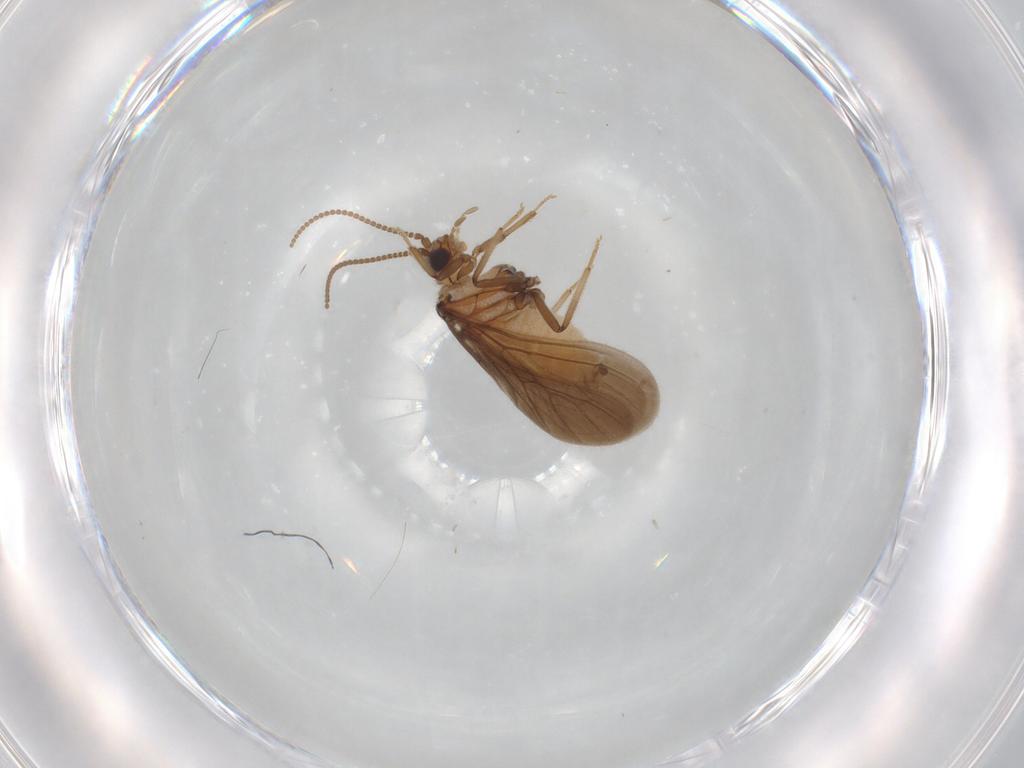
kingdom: Animalia
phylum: Arthropoda
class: Insecta
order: Neuroptera
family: Coniopterygidae
